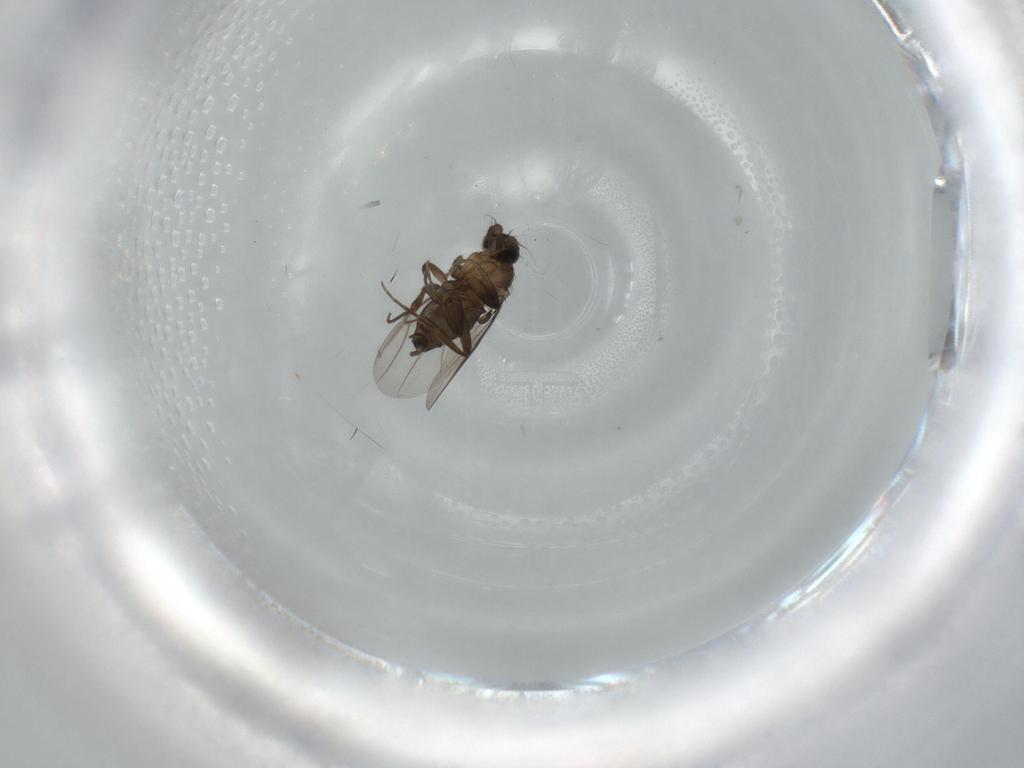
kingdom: Animalia
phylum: Arthropoda
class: Insecta
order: Diptera
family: Phoridae
